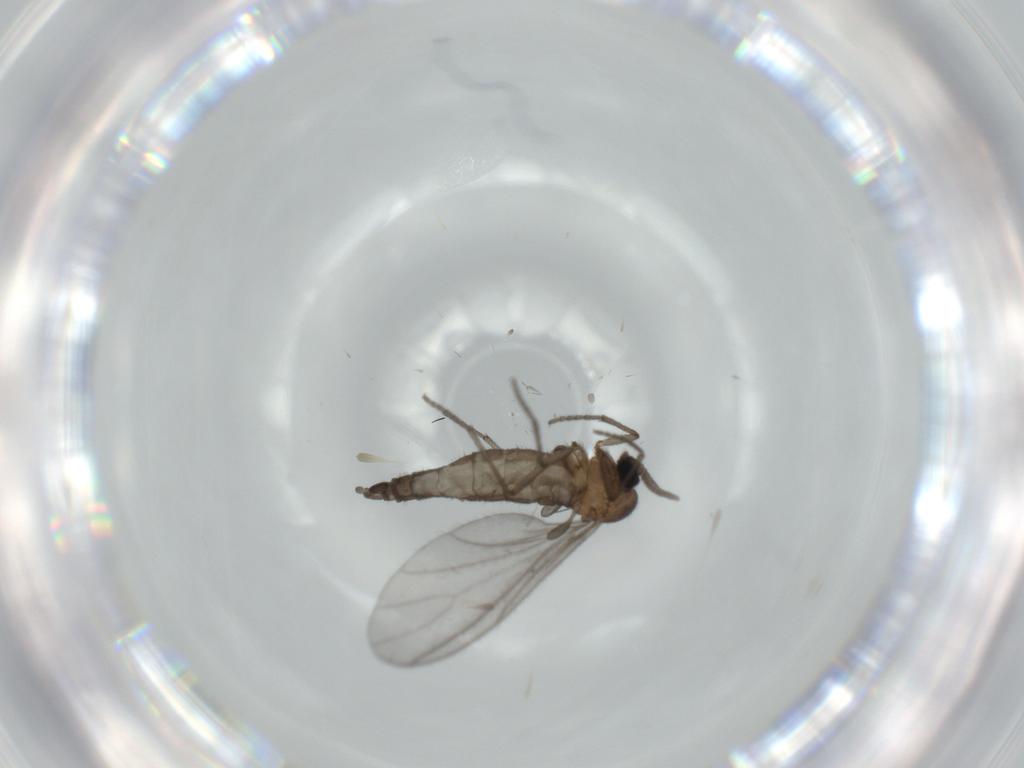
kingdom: Animalia
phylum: Arthropoda
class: Insecta
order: Diptera
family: Sciaridae
